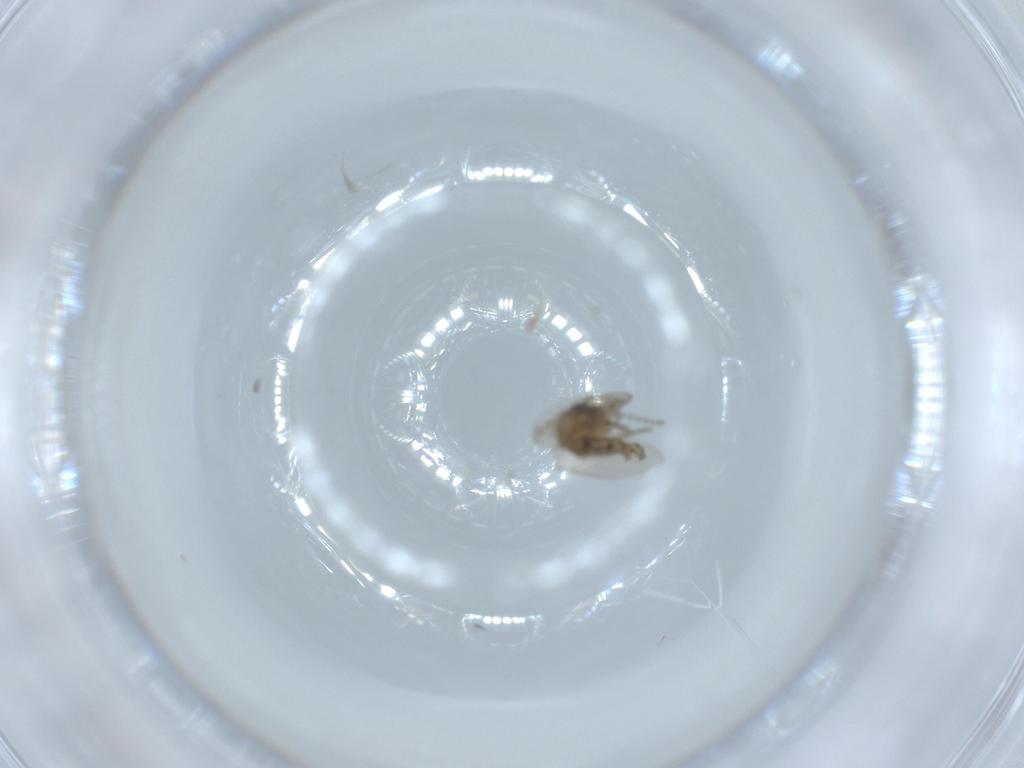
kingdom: Animalia
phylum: Arthropoda
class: Insecta
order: Diptera
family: Psychodidae
